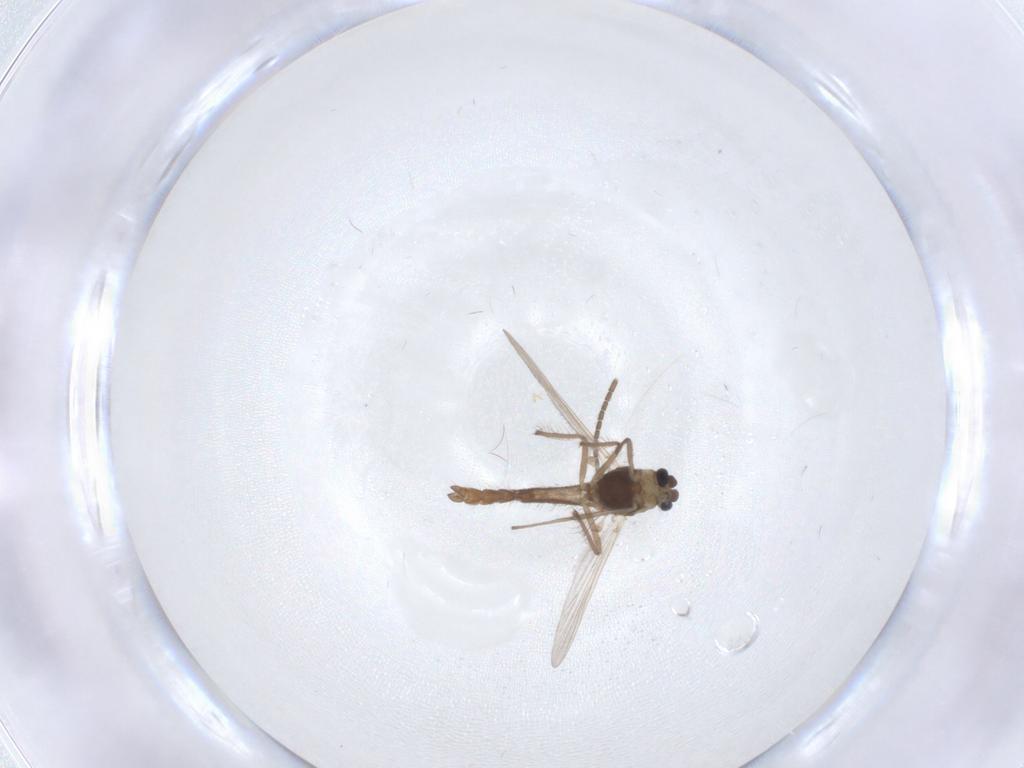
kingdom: Animalia
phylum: Arthropoda
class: Insecta
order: Diptera
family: Chironomidae
